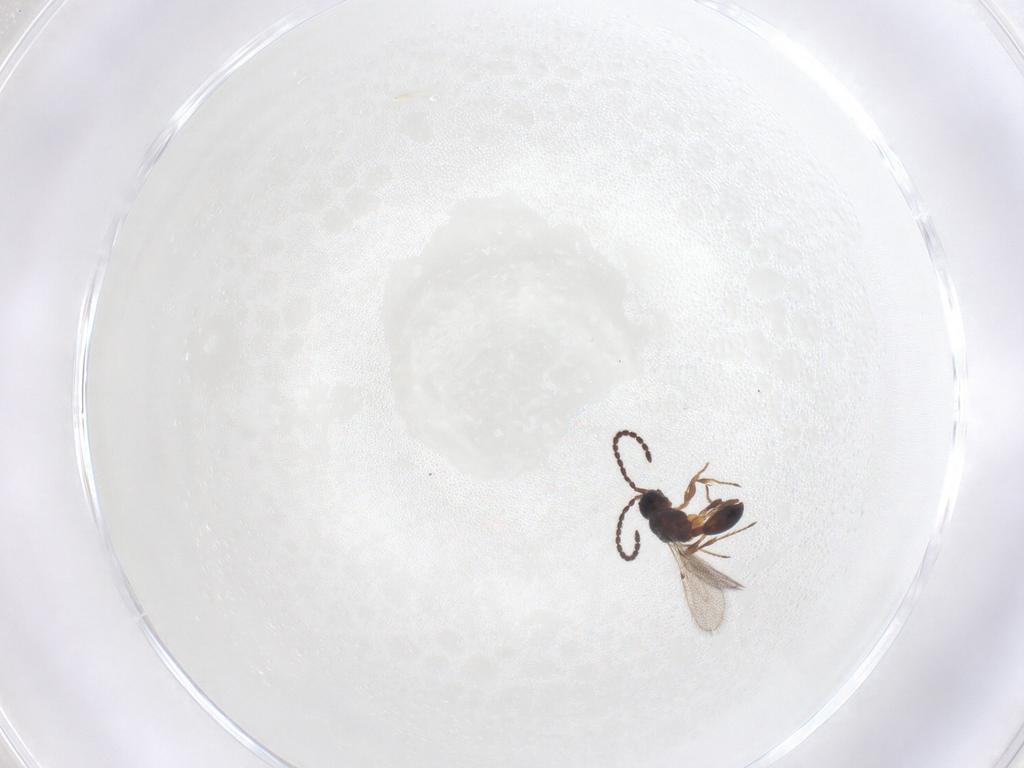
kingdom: Animalia
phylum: Arthropoda
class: Insecta
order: Hymenoptera
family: Diapriidae
